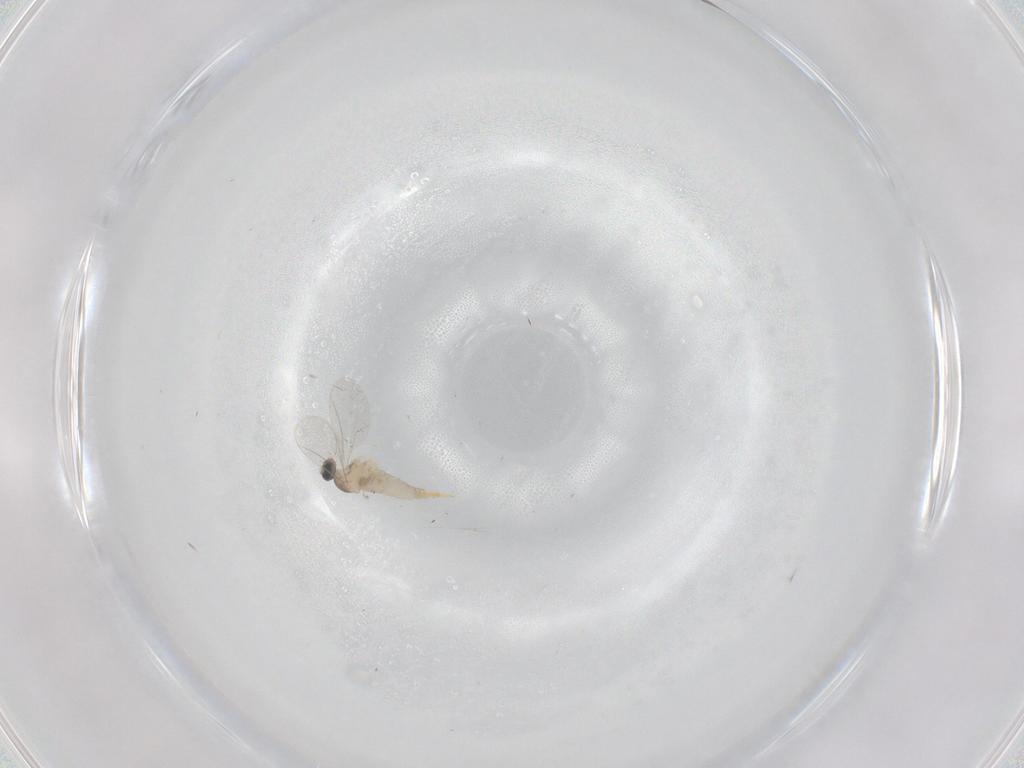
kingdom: Animalia
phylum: Arthropoda
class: Insecta
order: Diptera
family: Cecidomyiidae
